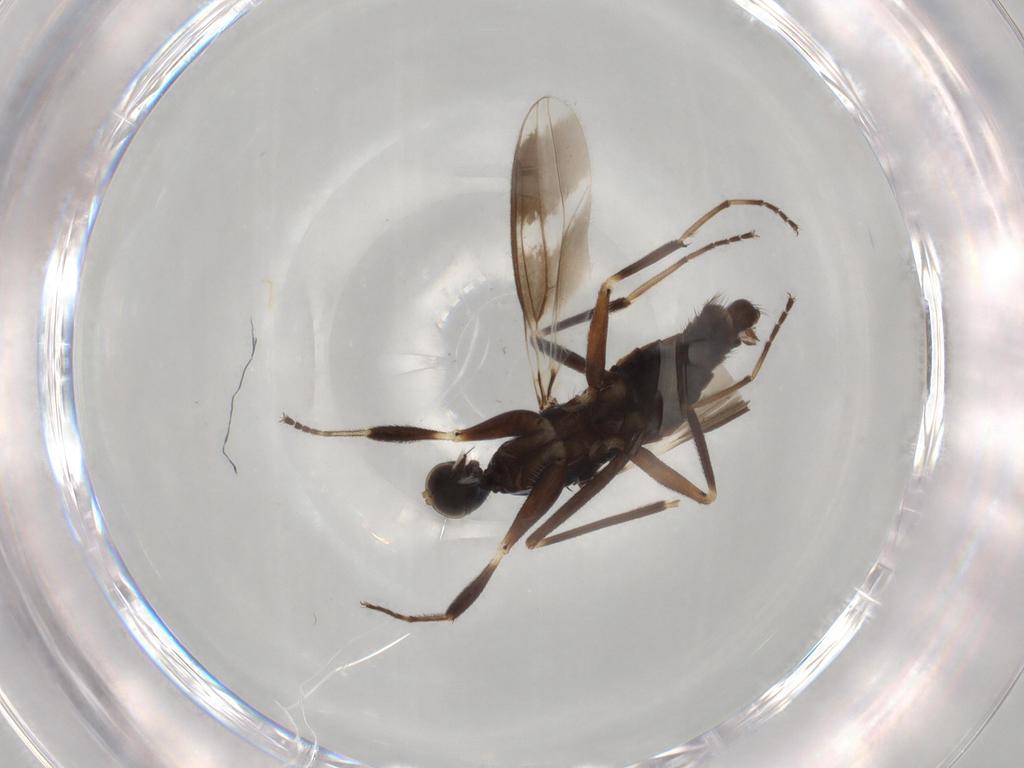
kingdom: Animalia
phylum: Arthropoda
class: Insecta
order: Diptera
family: Hybotidae
